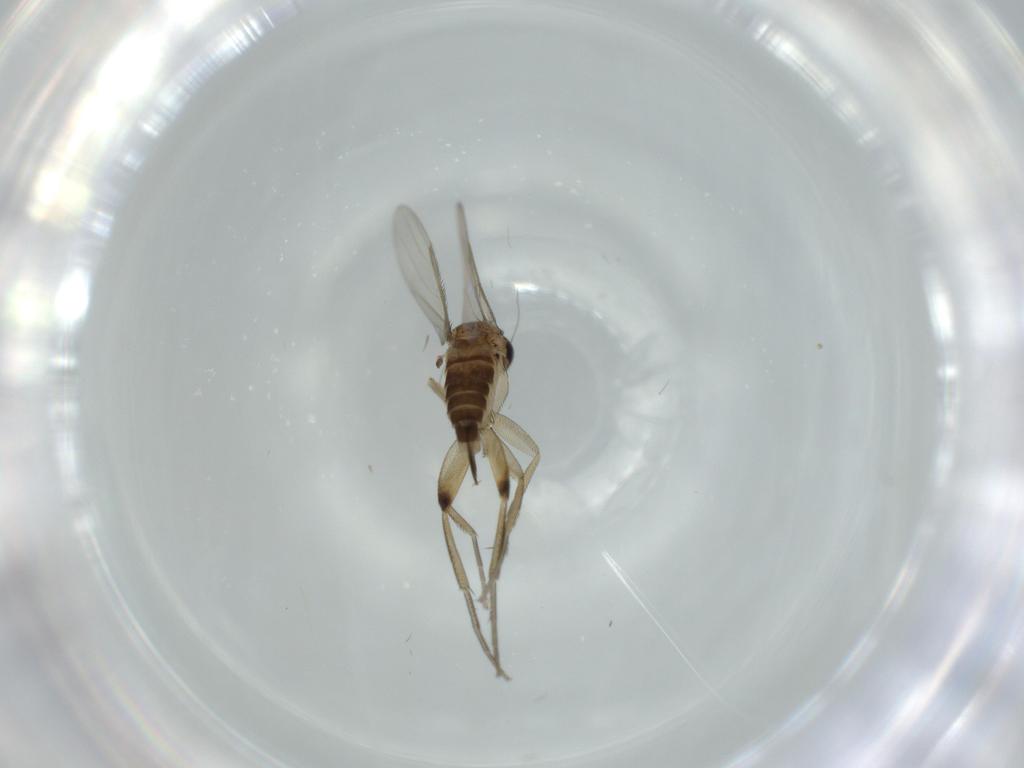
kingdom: Animalia
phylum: Arthropoda
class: Insecta
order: Diptera
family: Phoridae
